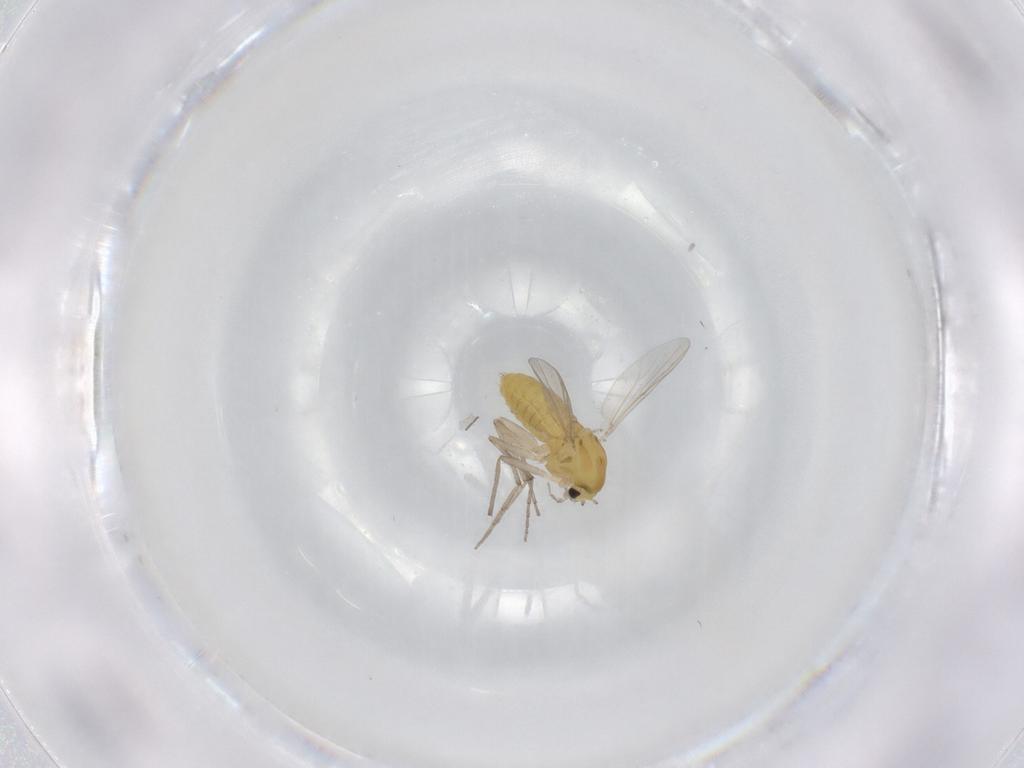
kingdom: Animalia
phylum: Arthropoda
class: Insecta
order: Diptera
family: Chironomidae
